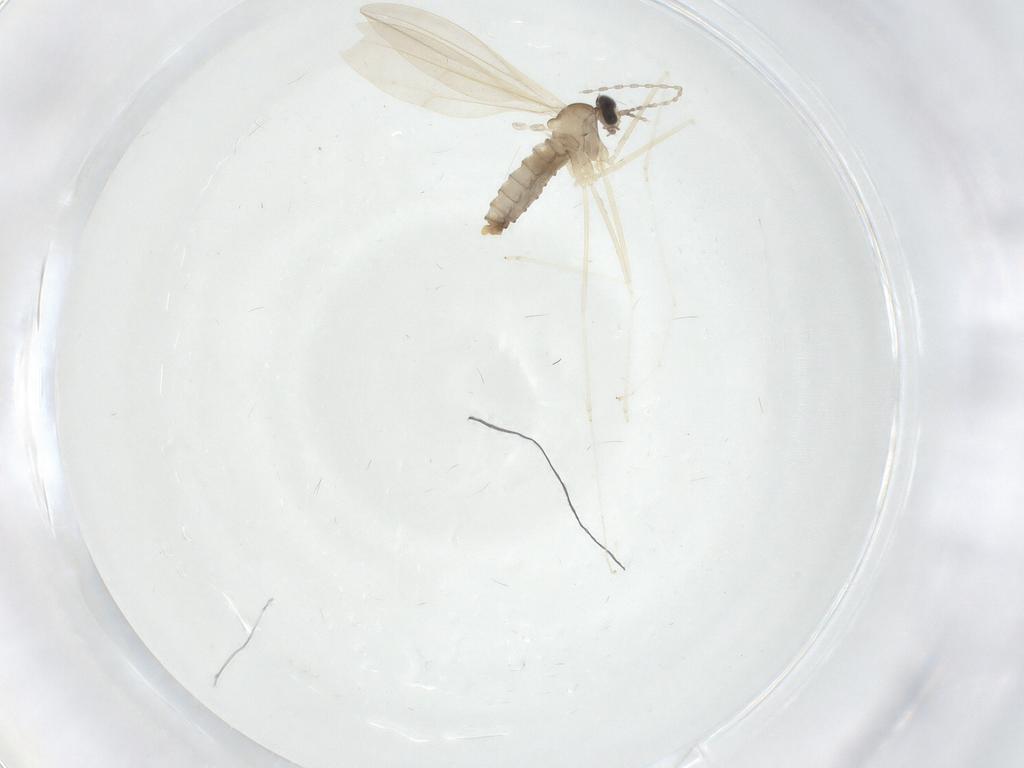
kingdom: Animalia
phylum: Arthropoda
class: Insecta
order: Diptera
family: Cecidomyiidae
